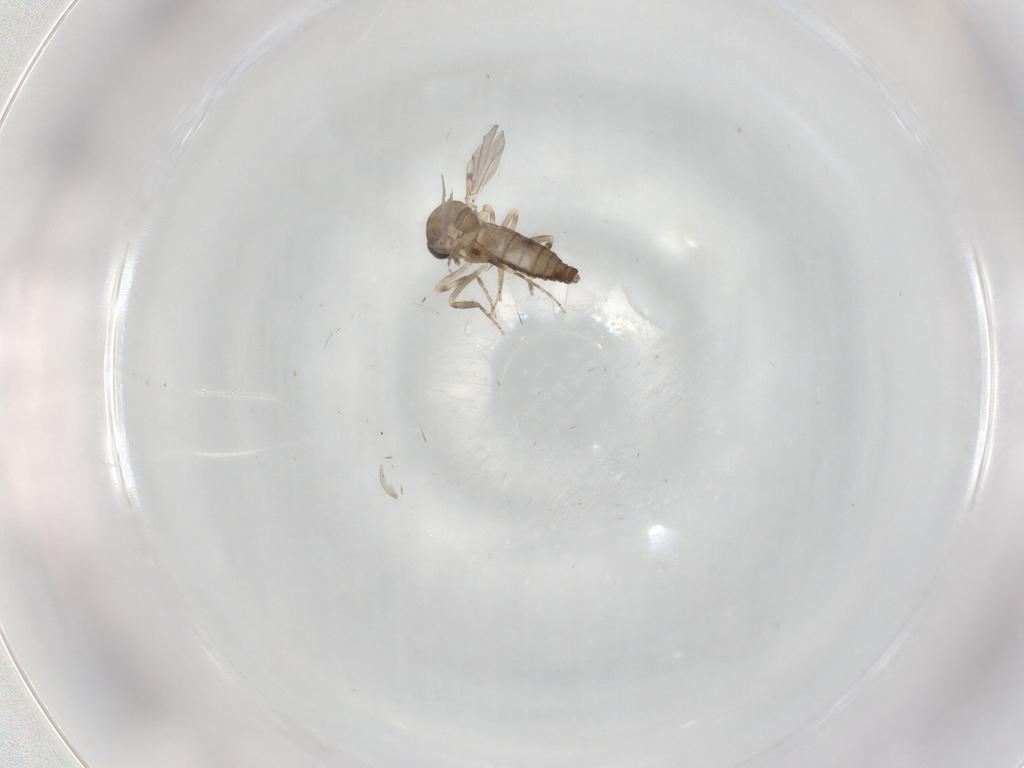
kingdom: Animalia
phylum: Arthropoda
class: Insecta
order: Diptera
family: Ceratopogonidae
